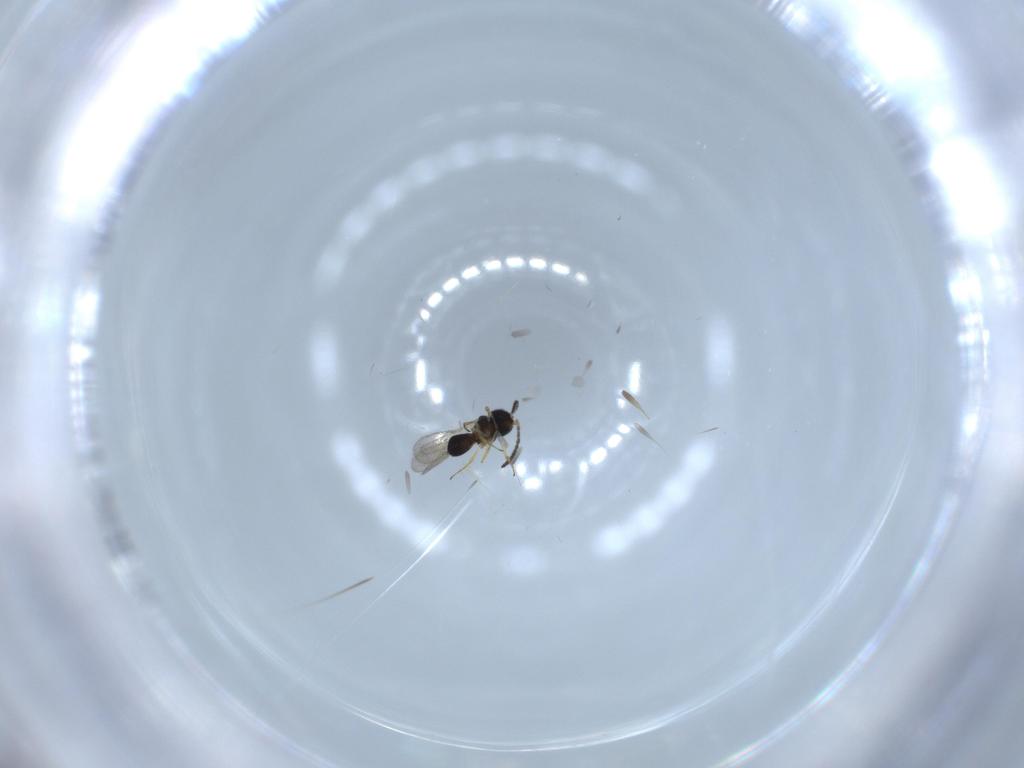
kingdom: Animalia
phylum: Arthropoda
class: Insecta
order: Hymenoptera
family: Scelionidae
